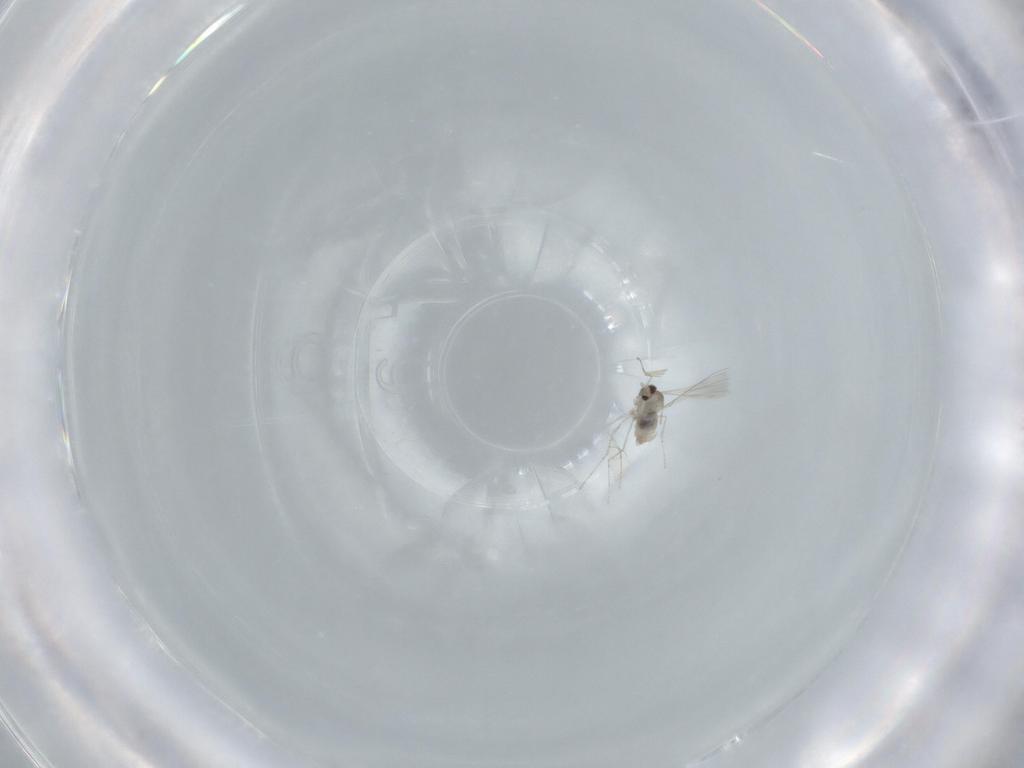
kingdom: Animalia
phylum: Arthropoda
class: Insecta
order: Diptera
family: Cecidomyiidae
